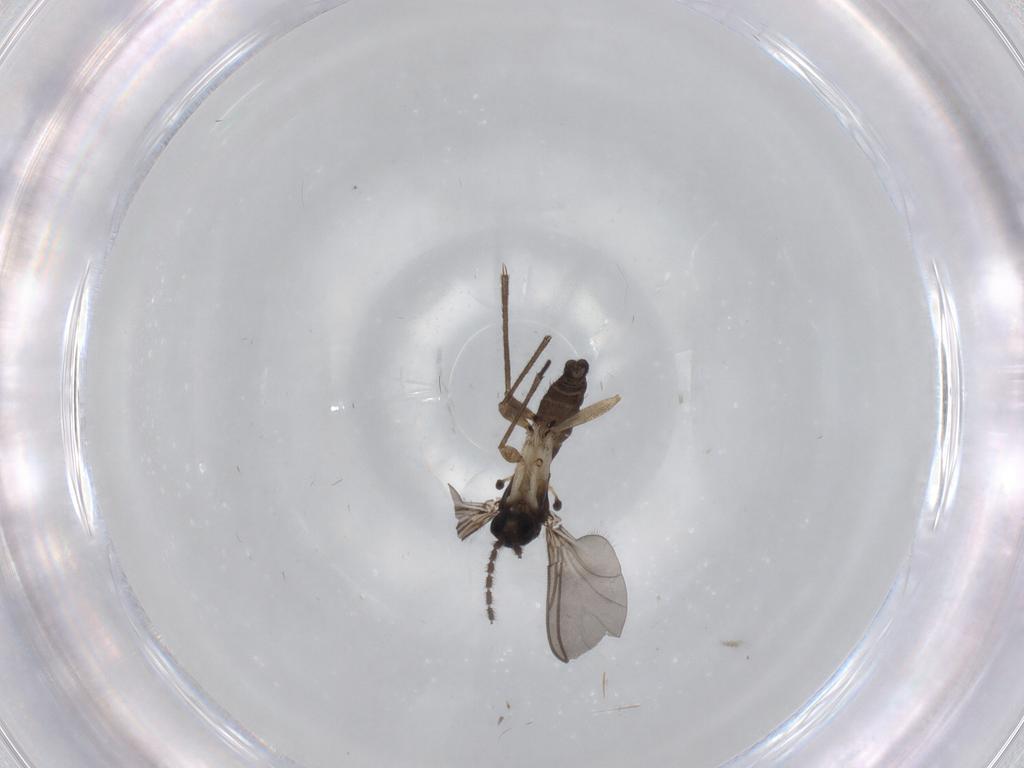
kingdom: Animalia
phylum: Arthropoda
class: Insecta
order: Diptera
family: Sciaridae
